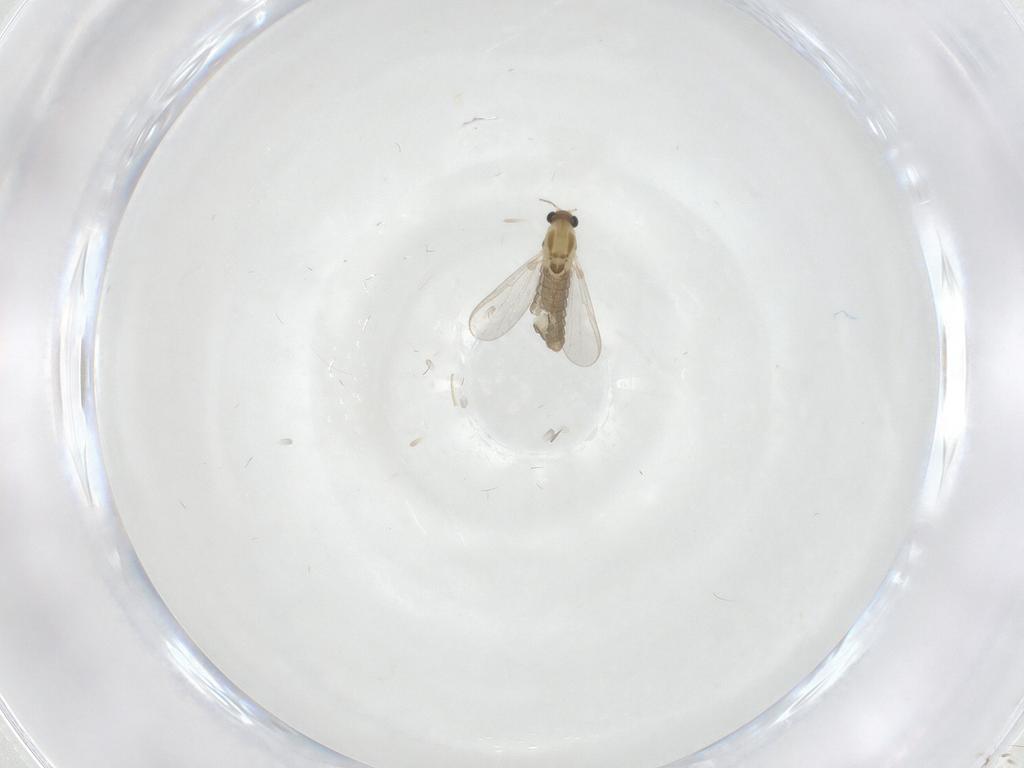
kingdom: Animalia
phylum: Arthropoda
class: Insecta
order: Diptera
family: Chironomidae
